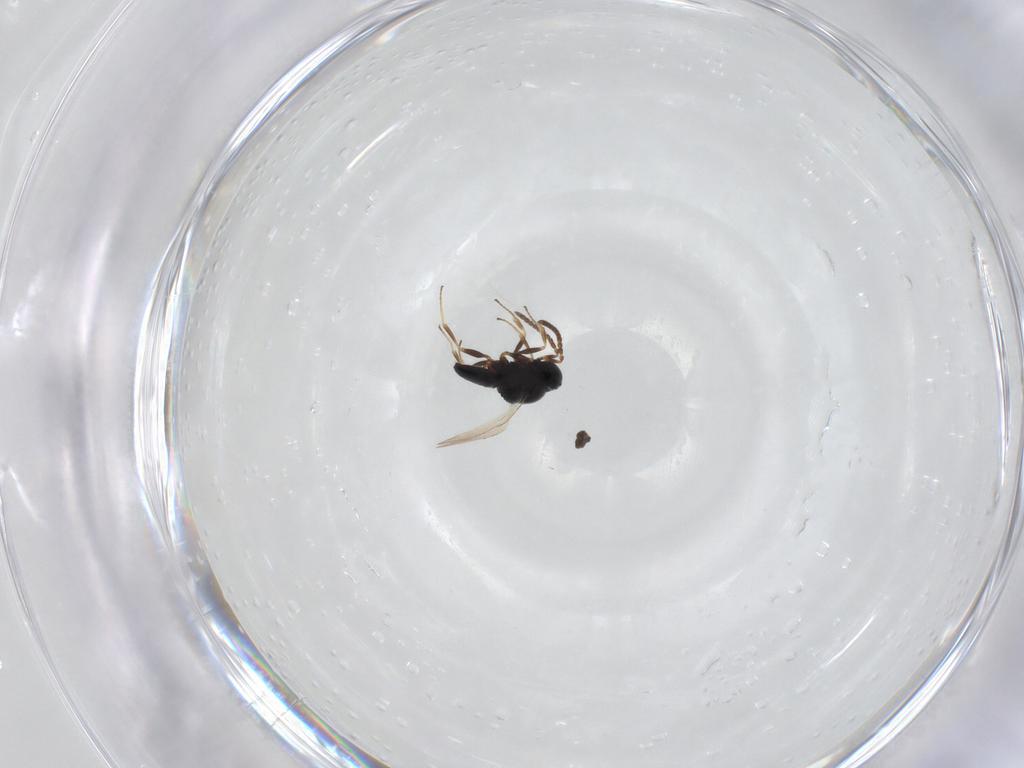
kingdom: Animalia
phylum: Arthropoda
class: Insecta
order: Hymenoptera
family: Scelionidae
